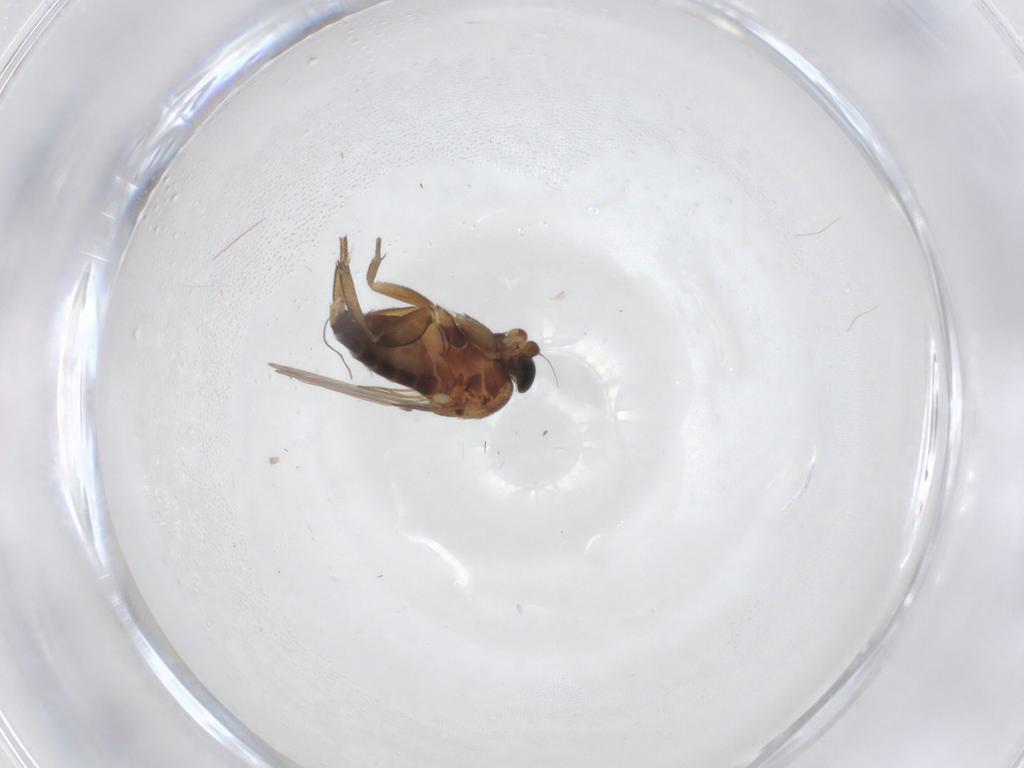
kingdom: Animalia
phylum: Arthropoda
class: Insecta
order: Diptera
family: Phoridae
